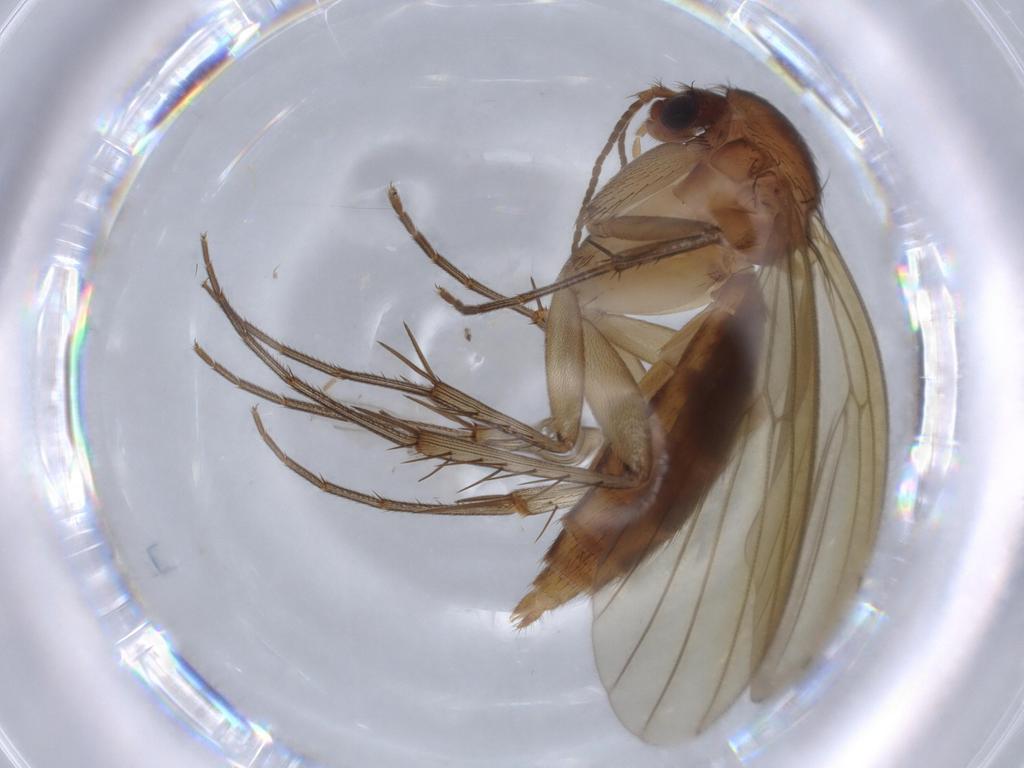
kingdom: Animalia
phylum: Arthropoda
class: Insecta
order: Diptera
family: Mycetophilidae
